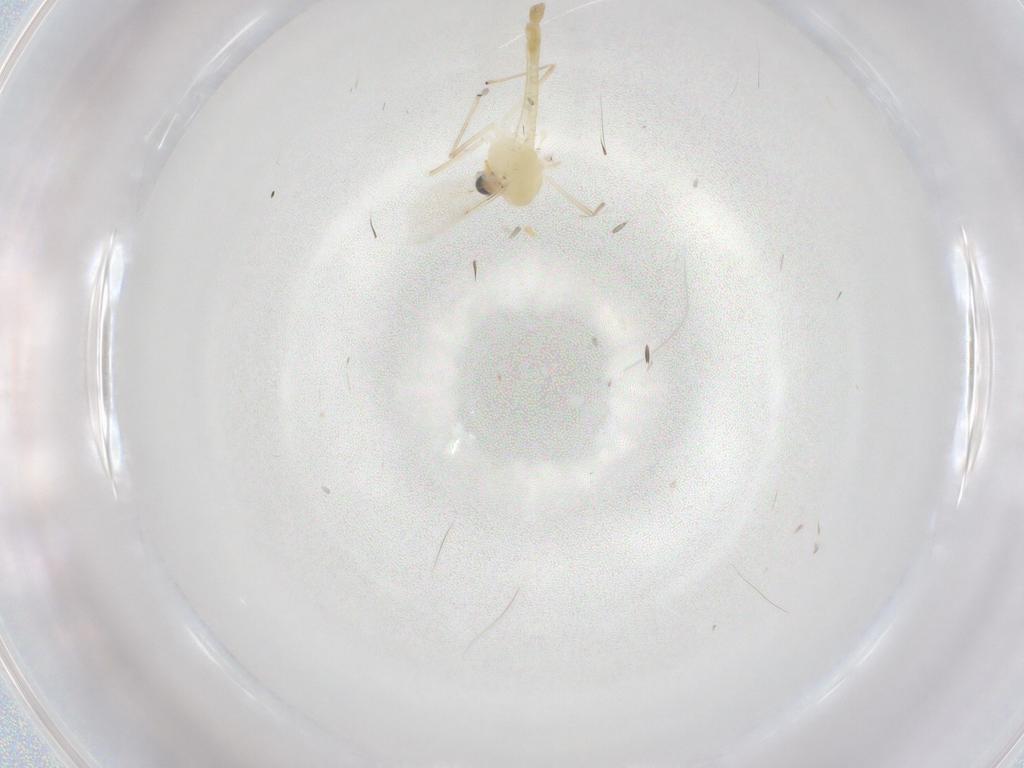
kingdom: Animalia
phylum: Arthropoda
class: Insecta
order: Diptera
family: Chironomidae
